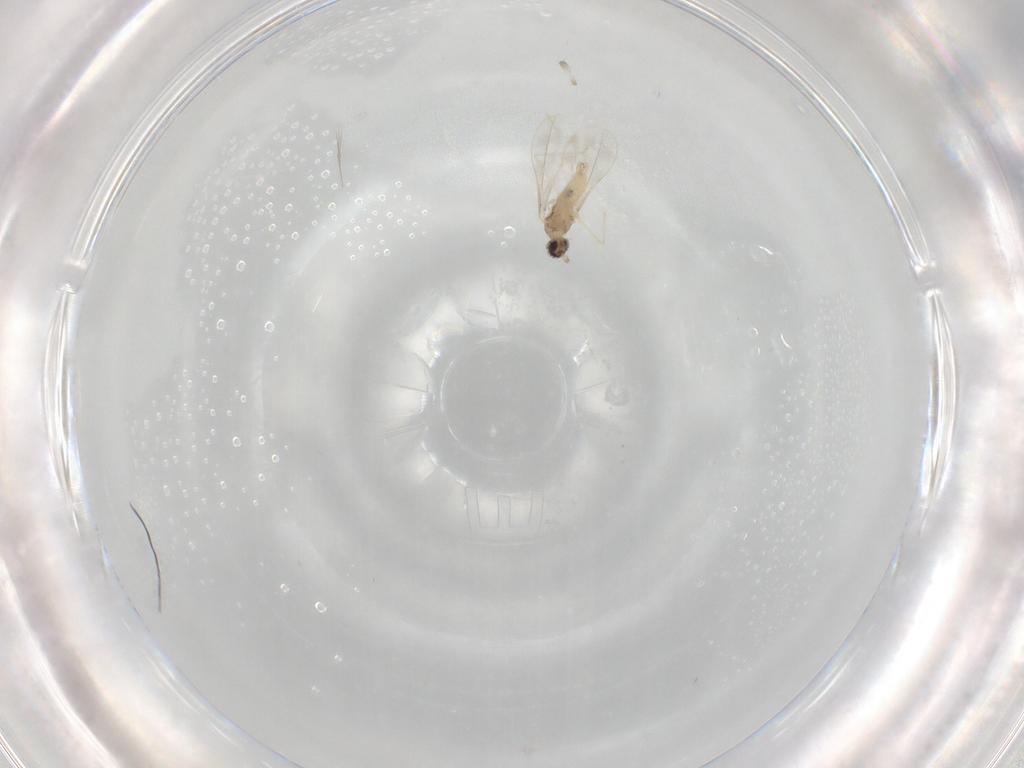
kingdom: Animalia
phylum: Arthropoda
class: Insecta
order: Diptera
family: Cecidomyiidae
